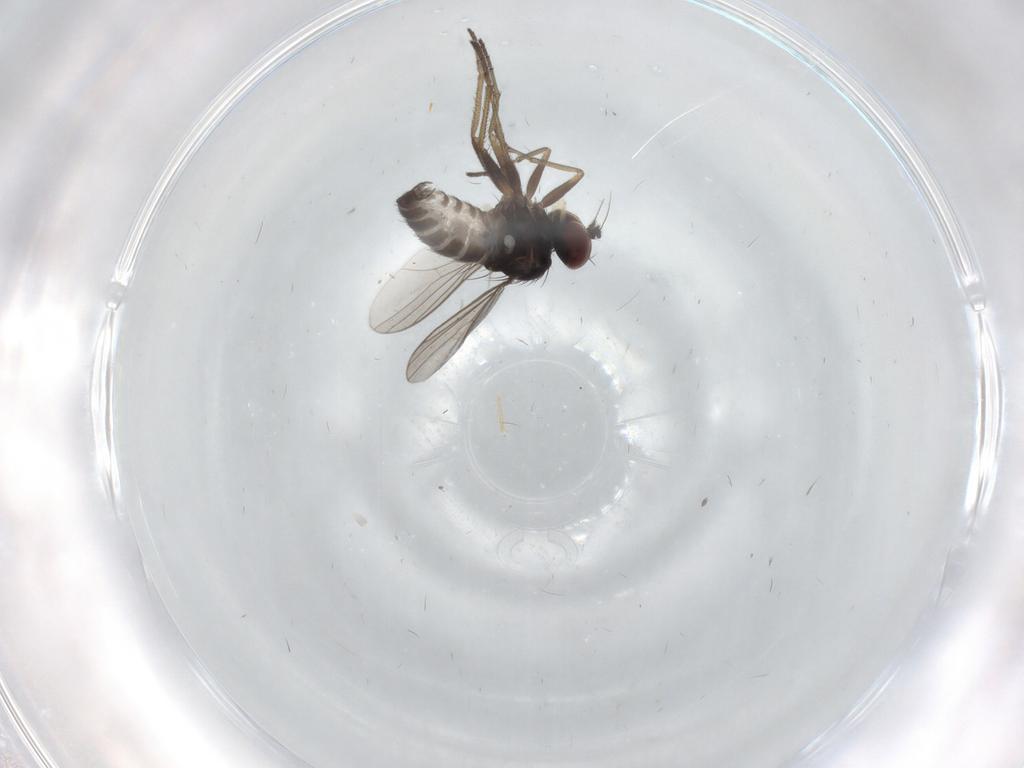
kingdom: Animalia
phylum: Arthropoda
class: Insecta
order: Diptera
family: Dolichopodidae
